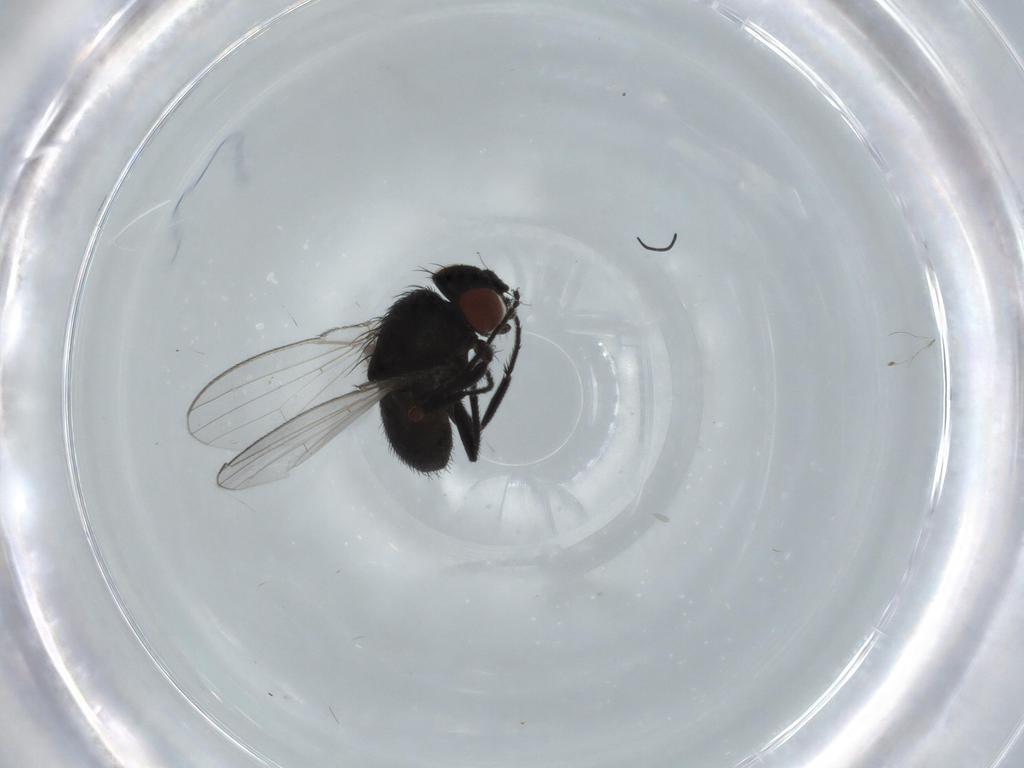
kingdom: Animalia
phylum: Arthropoda
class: Insecta
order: Diptera
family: Milichiidae
